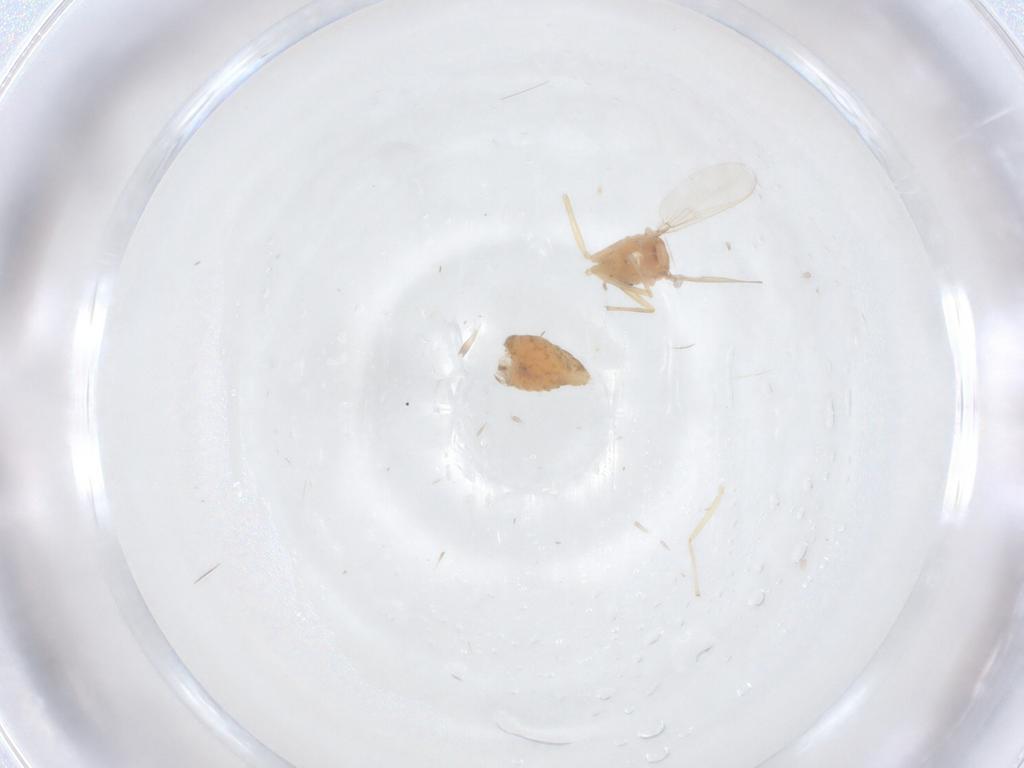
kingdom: Animalia
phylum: Arthropoda
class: Insecta
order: Diptera
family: Chironomidae
